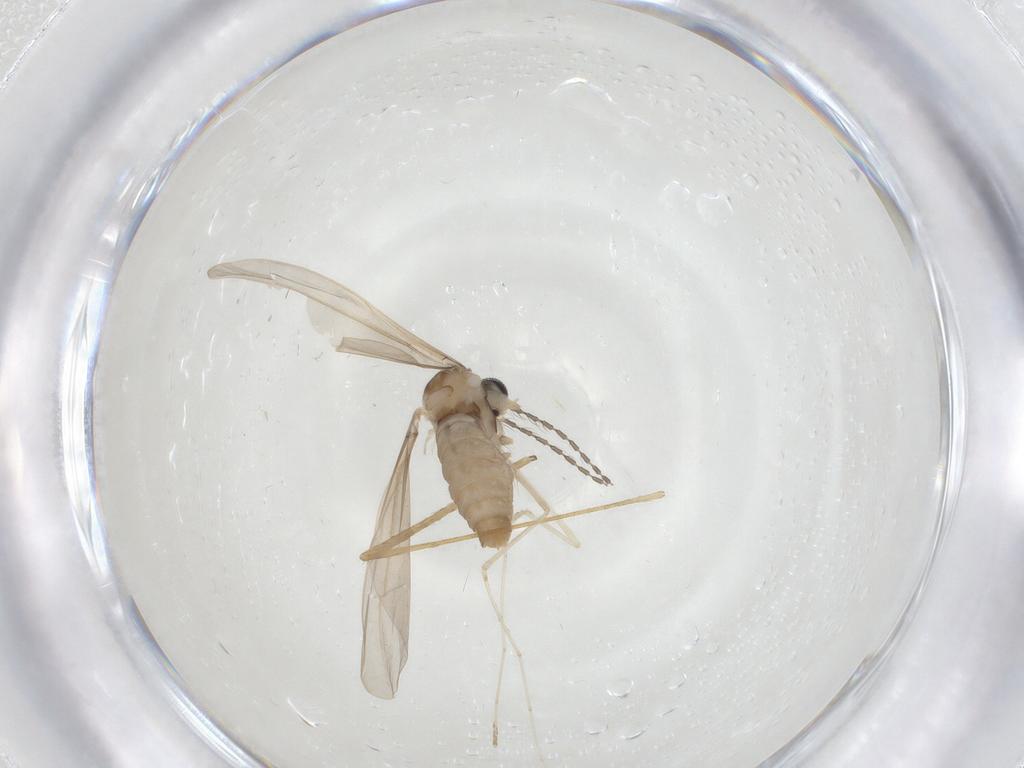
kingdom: Animalia
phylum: Arthropoda
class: Insecta
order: Diptera
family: Limoniidae
